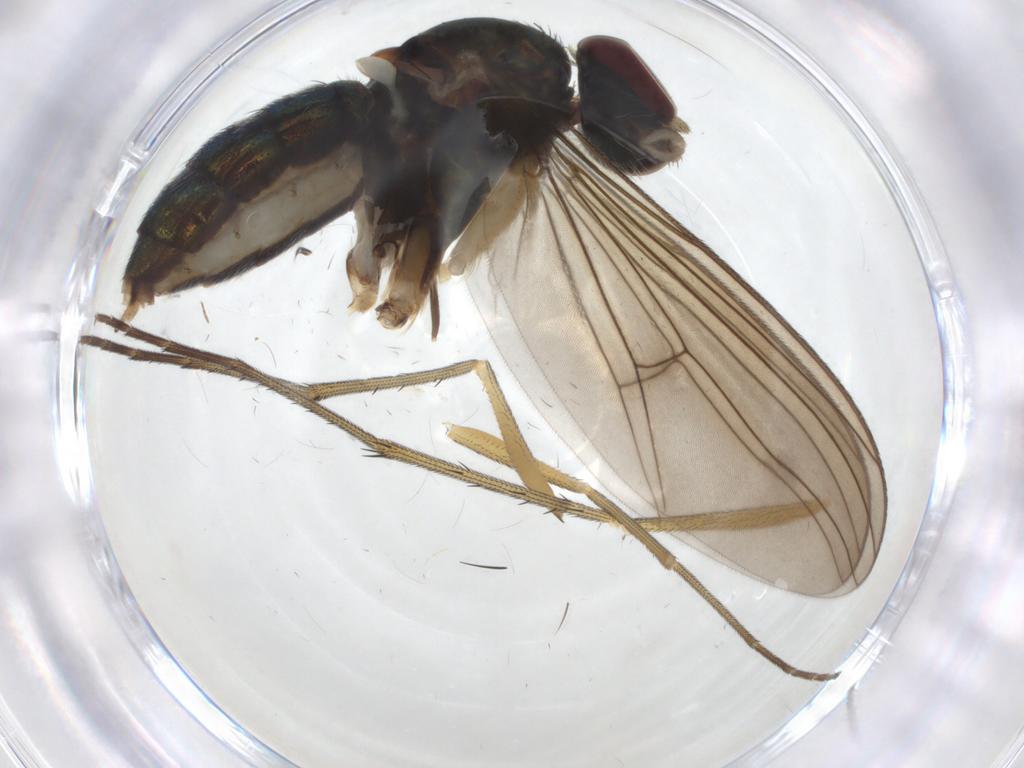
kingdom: Animalia
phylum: Arthropoda
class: Insecta
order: Diptera
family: Dolichopodidae
